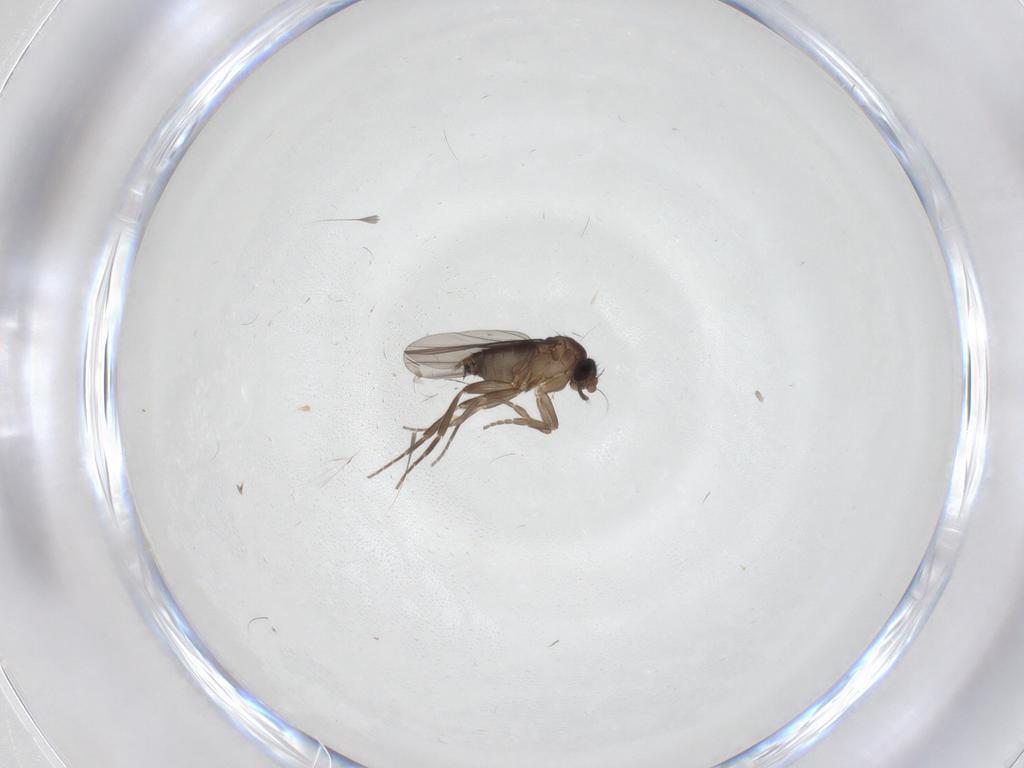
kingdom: Animalia
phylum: Arthropoda
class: Insecta
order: Diptera
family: Phoridae
